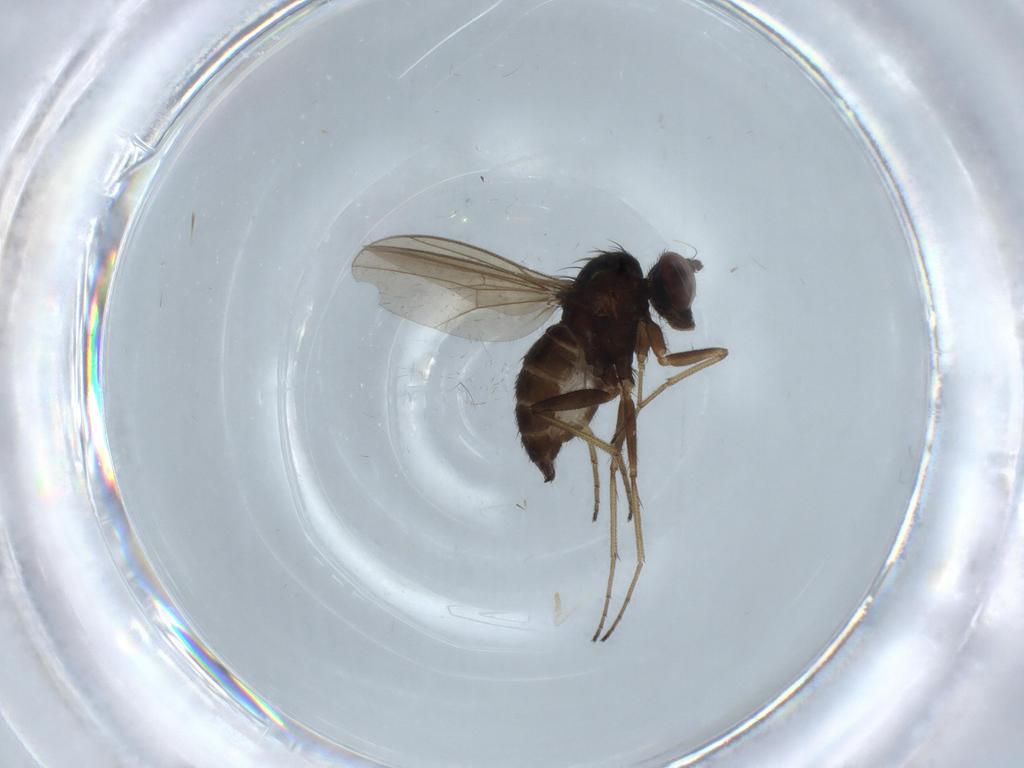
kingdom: Animalia
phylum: Arthropoda
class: Insecta
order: Diptera
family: Dolichopodidae
